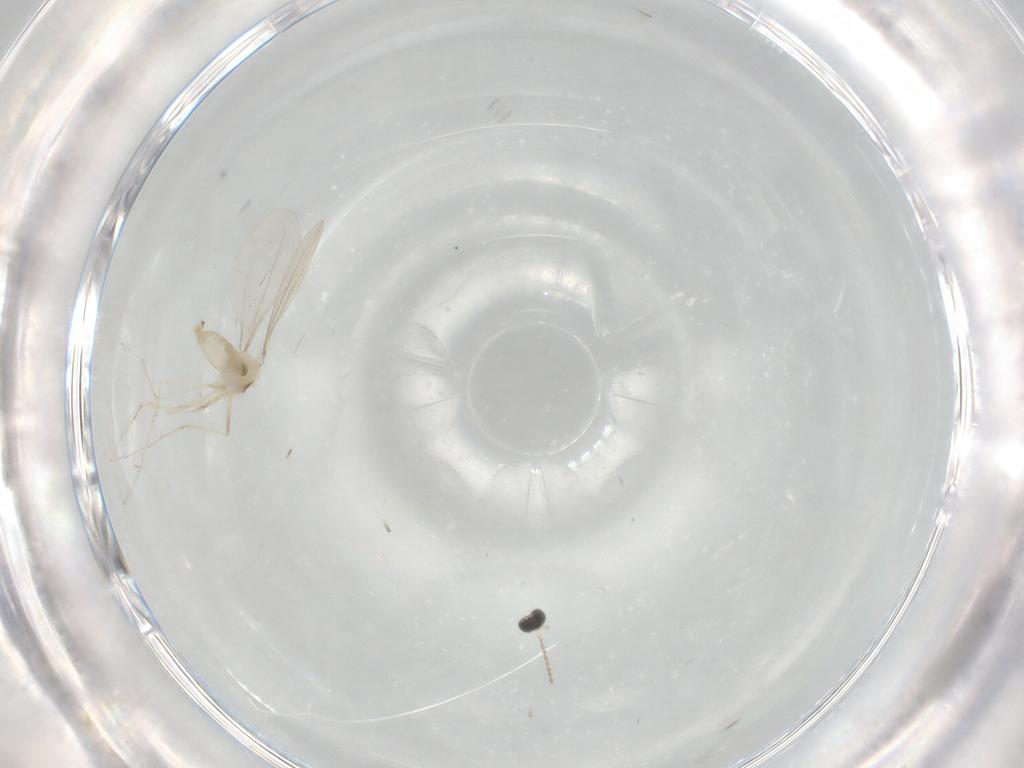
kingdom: Animalia
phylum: Arthropoda
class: Insecta
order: Diptera
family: Cecidomyiidae
